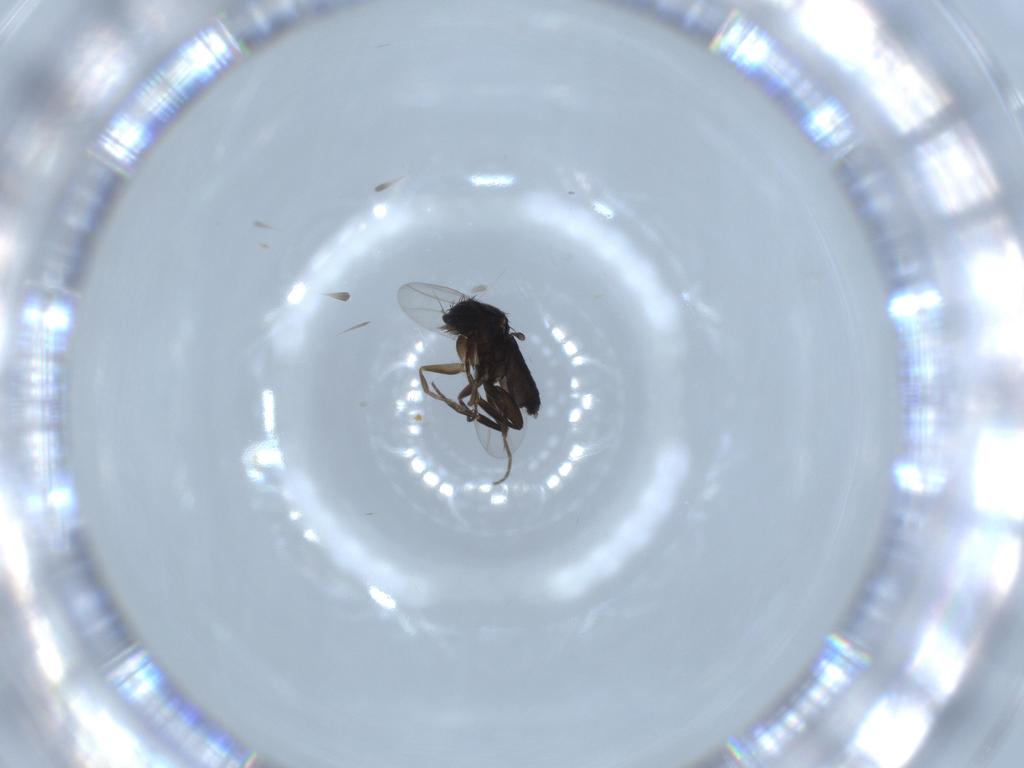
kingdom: Animalia
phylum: Arthropoda
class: Insecta
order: Diptera
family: Phoridae
